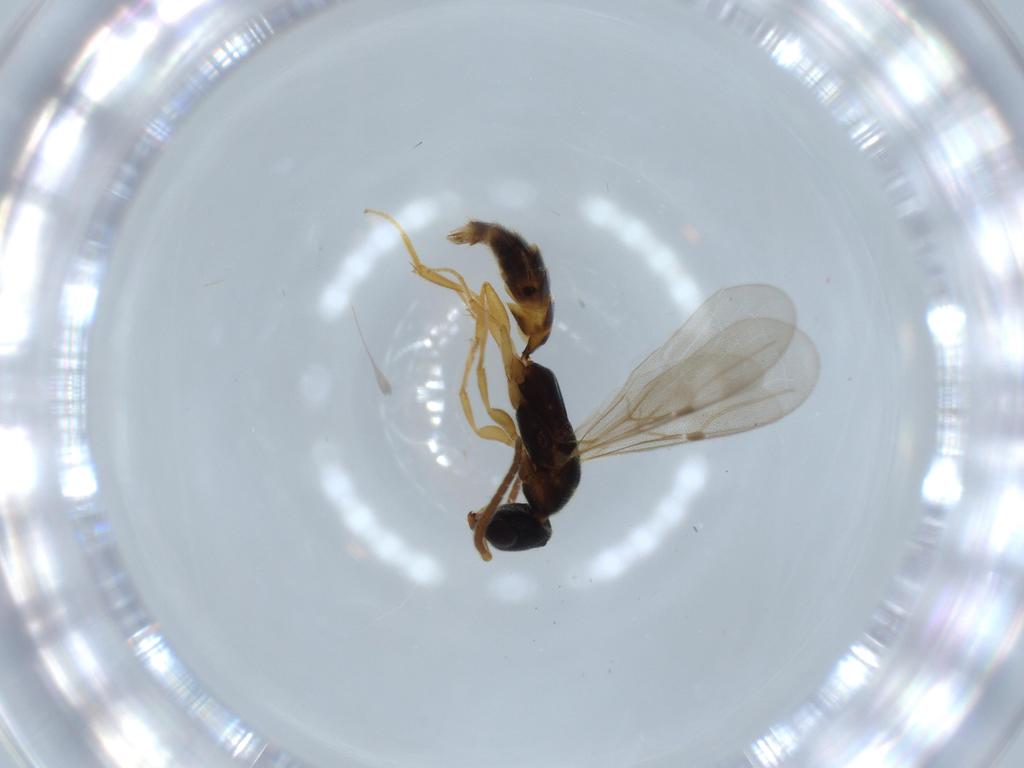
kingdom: Animalia
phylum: Arthropoda
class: Insecta
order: Hymenoptera
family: Bethylidae
